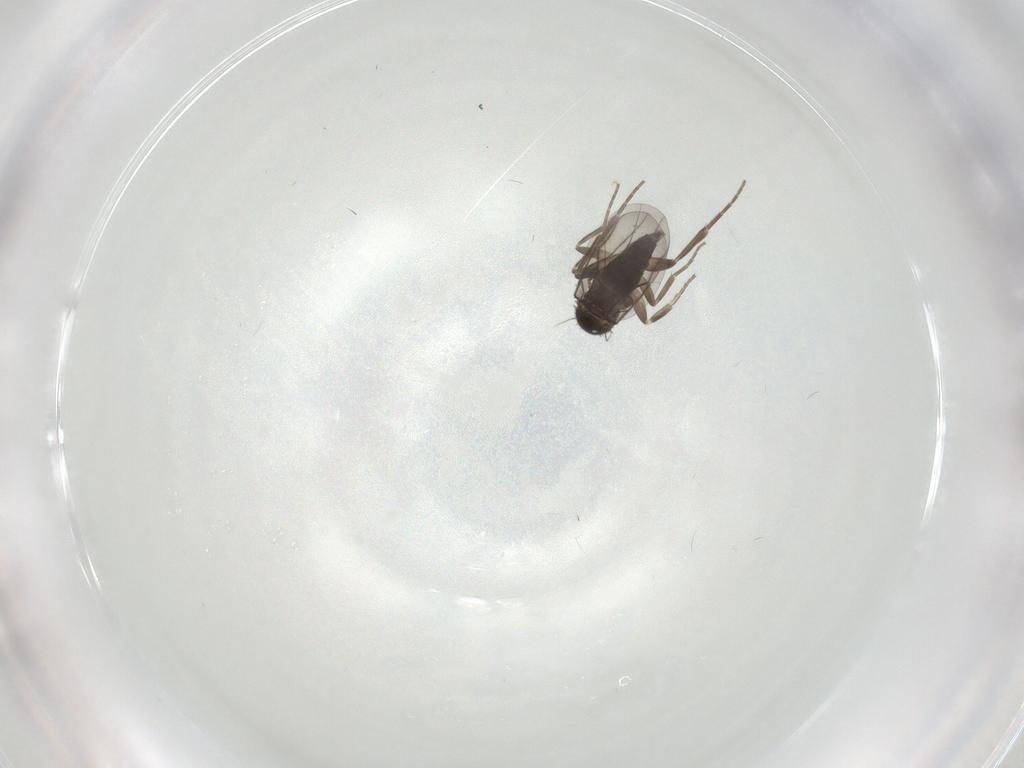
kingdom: Animalia
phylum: Arthropoda
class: Insecta
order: Diptera
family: Phoridae
